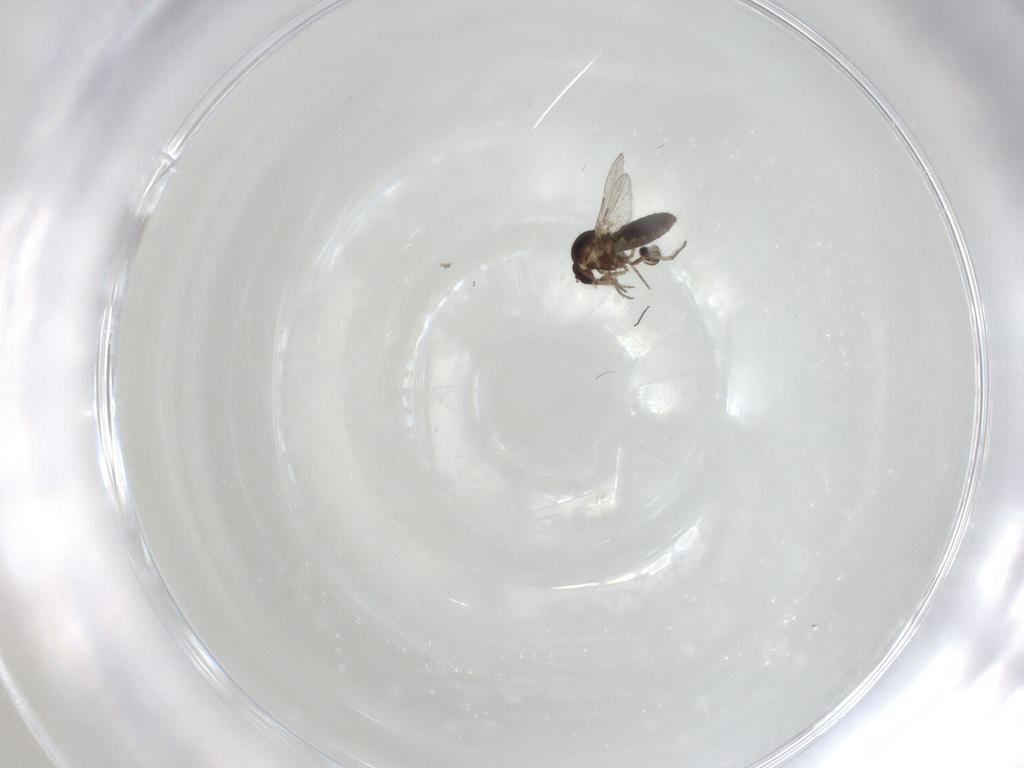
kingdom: Animalia
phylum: Arthropoda
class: Insecta
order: Diptera
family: Ceratopogonidae
